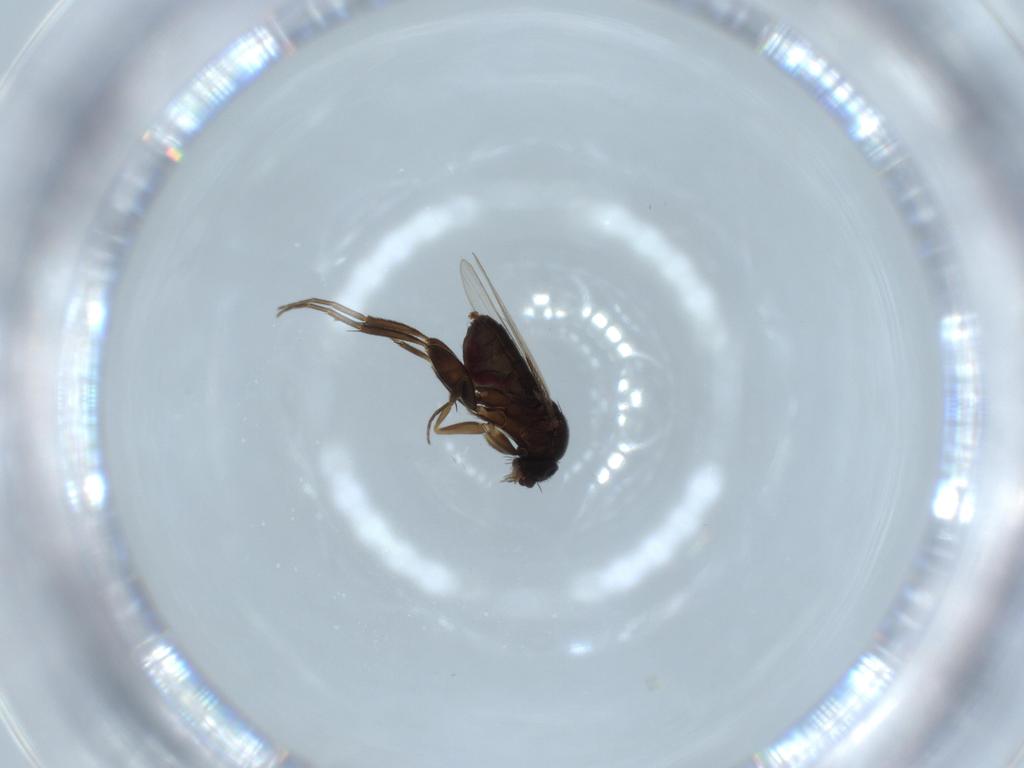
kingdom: Animalia
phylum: Arthropoda
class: Insecta
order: Diptera
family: Phoridae
